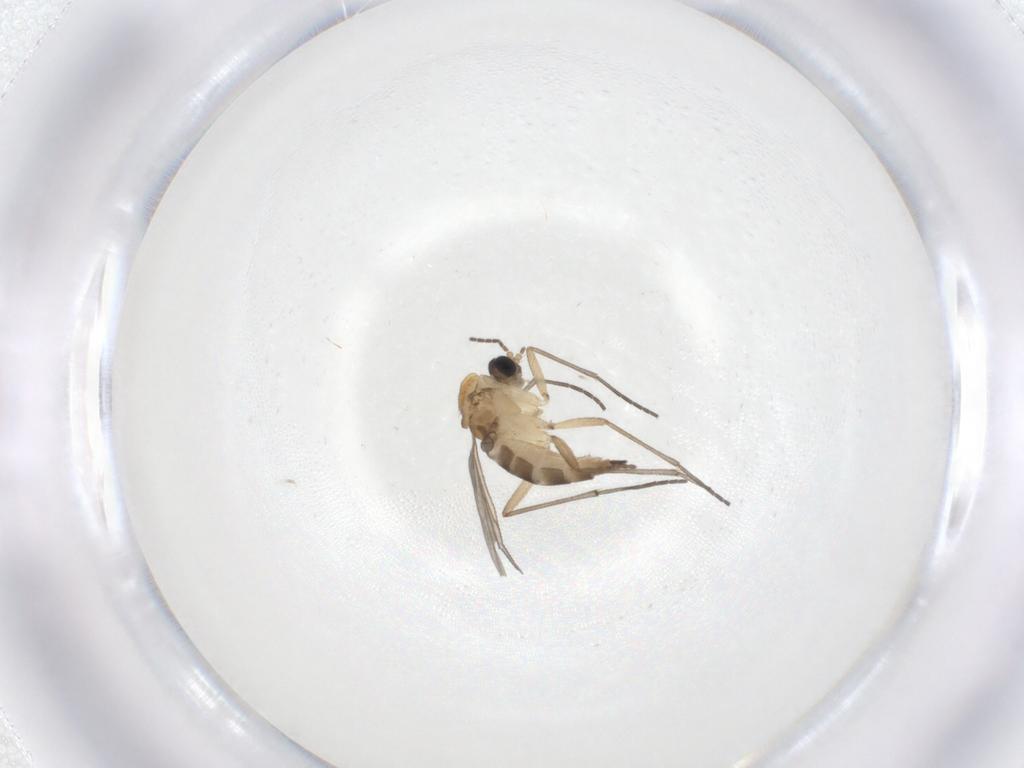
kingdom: Animalia
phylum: Arthropoda
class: Insecta
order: Diptera
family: Sciaridae
